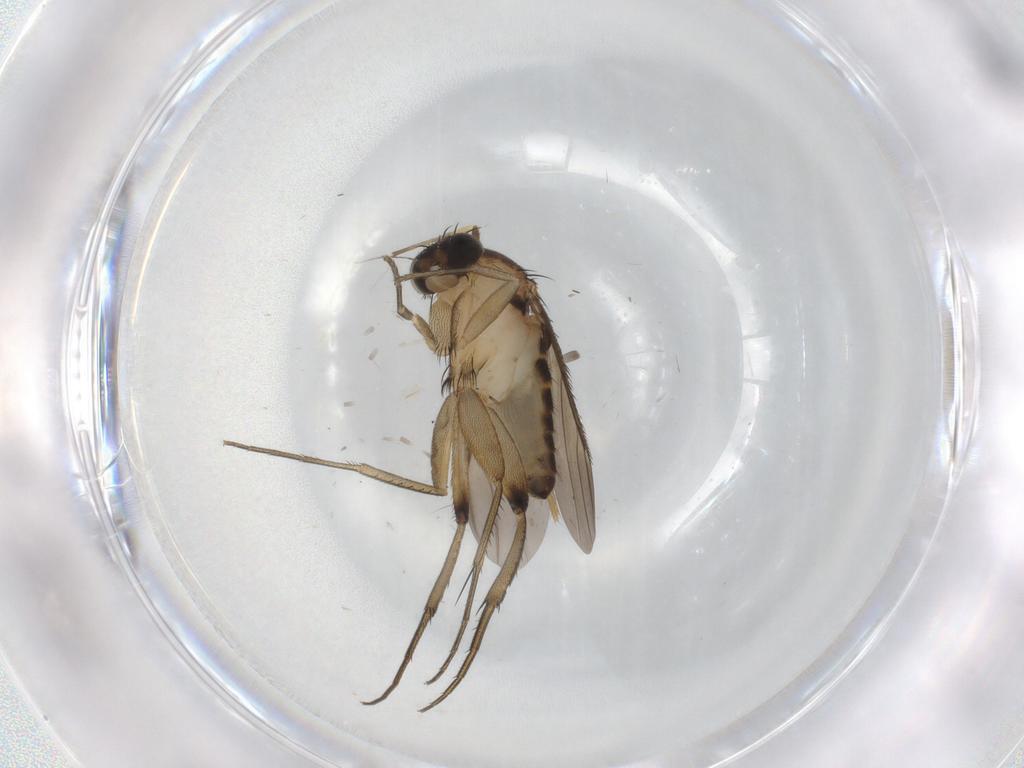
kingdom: Animalia
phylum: Arthropoda
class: Insecta
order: Diptera
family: Ceratopogonidae
